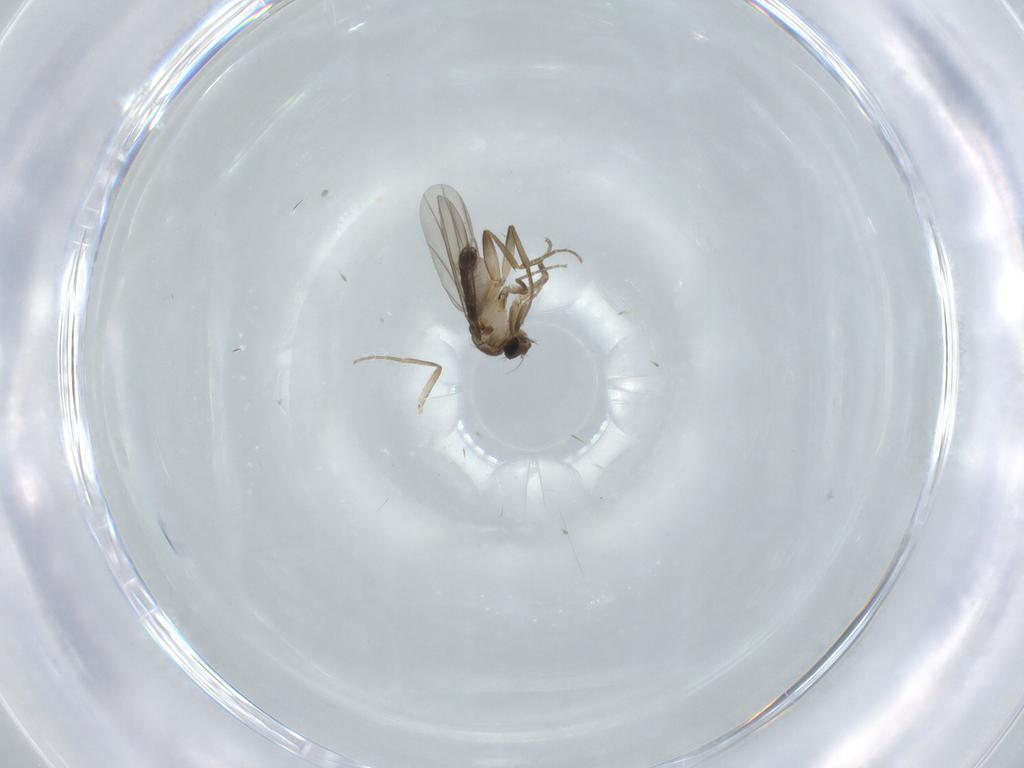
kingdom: Animalia
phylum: Arthropoda
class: Insecta
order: Diptera
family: Phoridae
